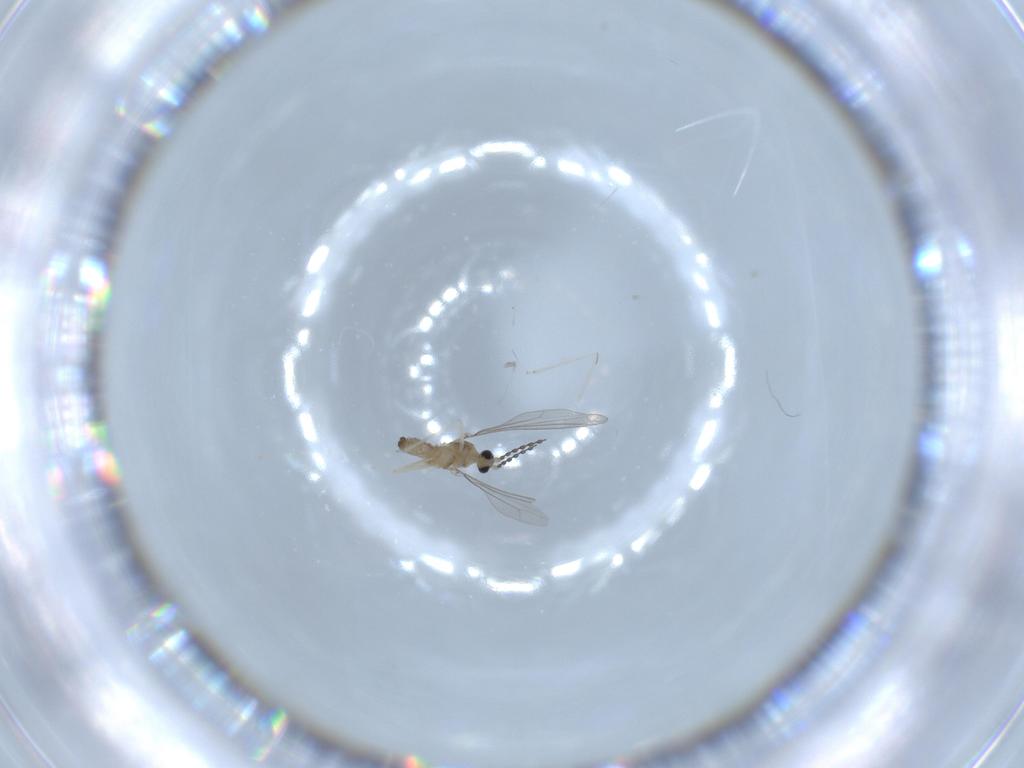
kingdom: Animalia
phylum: Arthropoda
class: Insecta
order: Diptera
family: Cecidomyiidae
